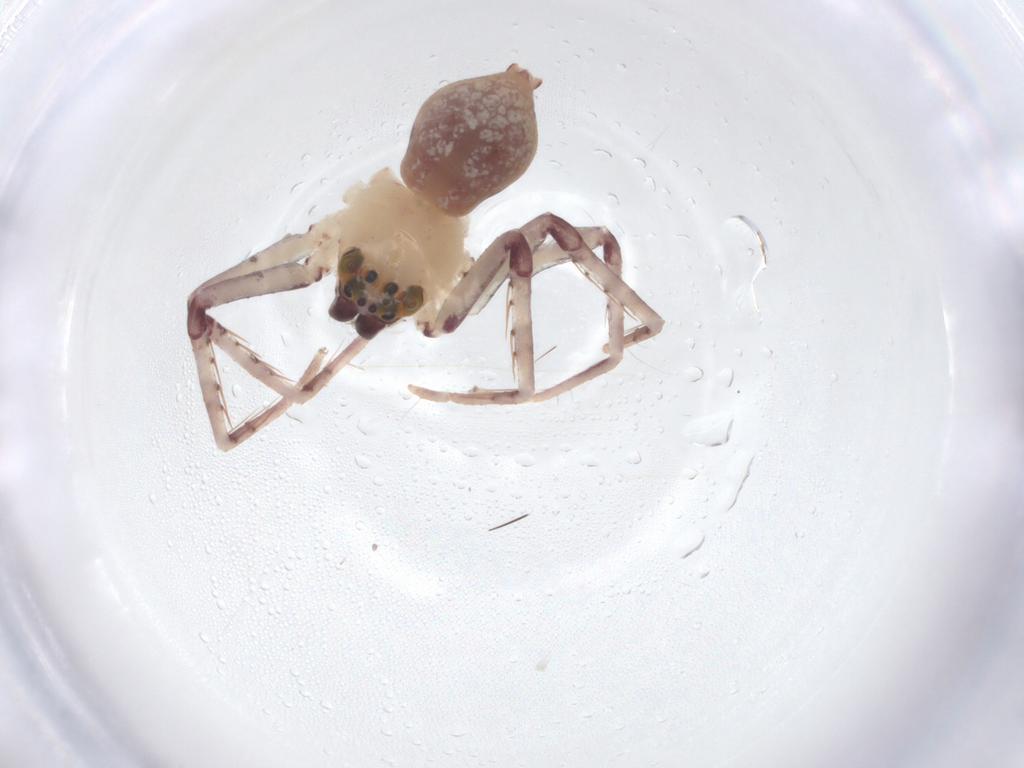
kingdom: Animalia
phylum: Arthropoda
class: Arachnida
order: Araneae
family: Sparassidae
